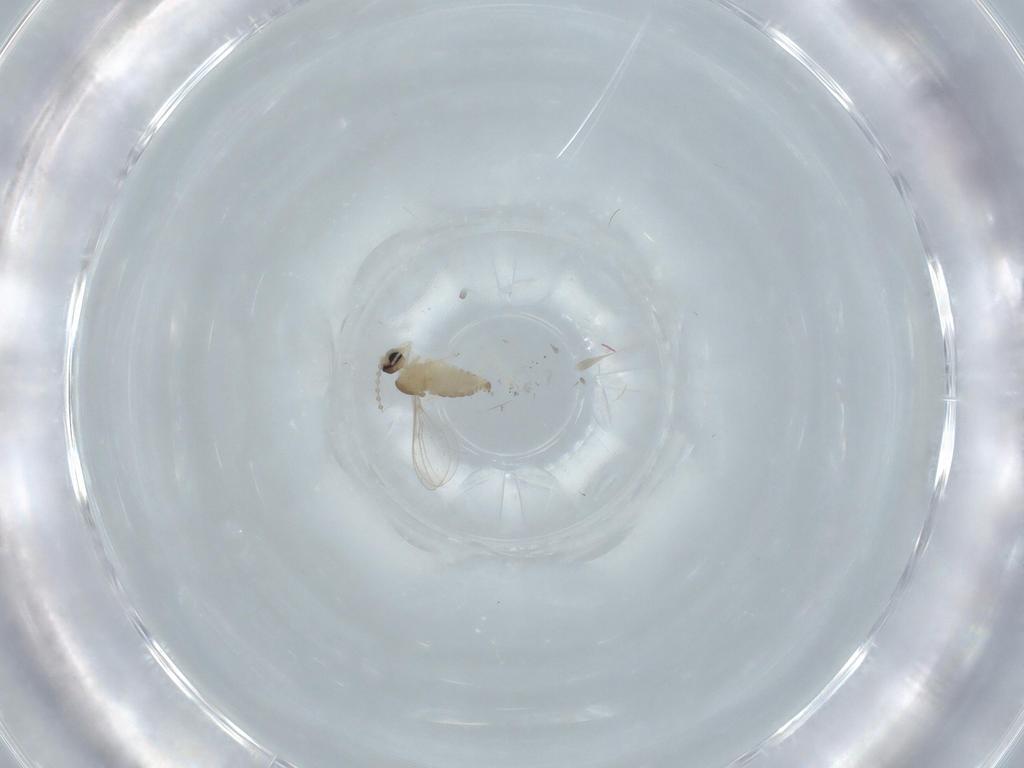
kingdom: Animalia
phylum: Arthropoda
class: Insecta
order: Diptera
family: Cecidomyiidae
